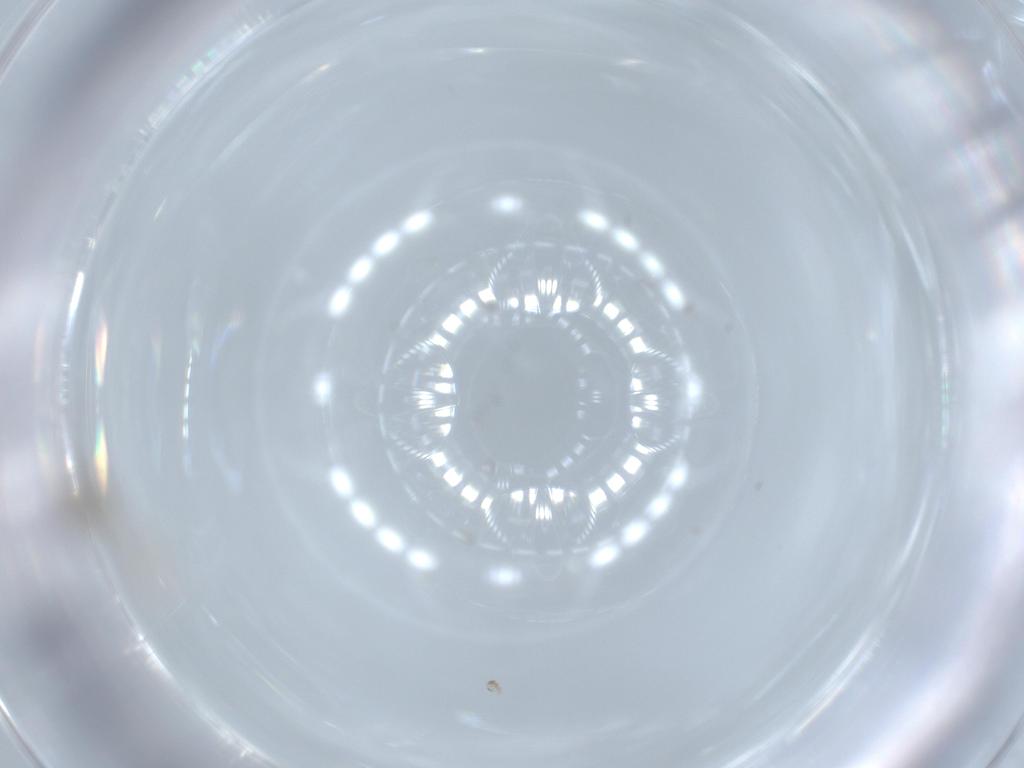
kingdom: Animalia
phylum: Arthropoda
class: Insecta
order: Diptera
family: Cecidomyiidae
